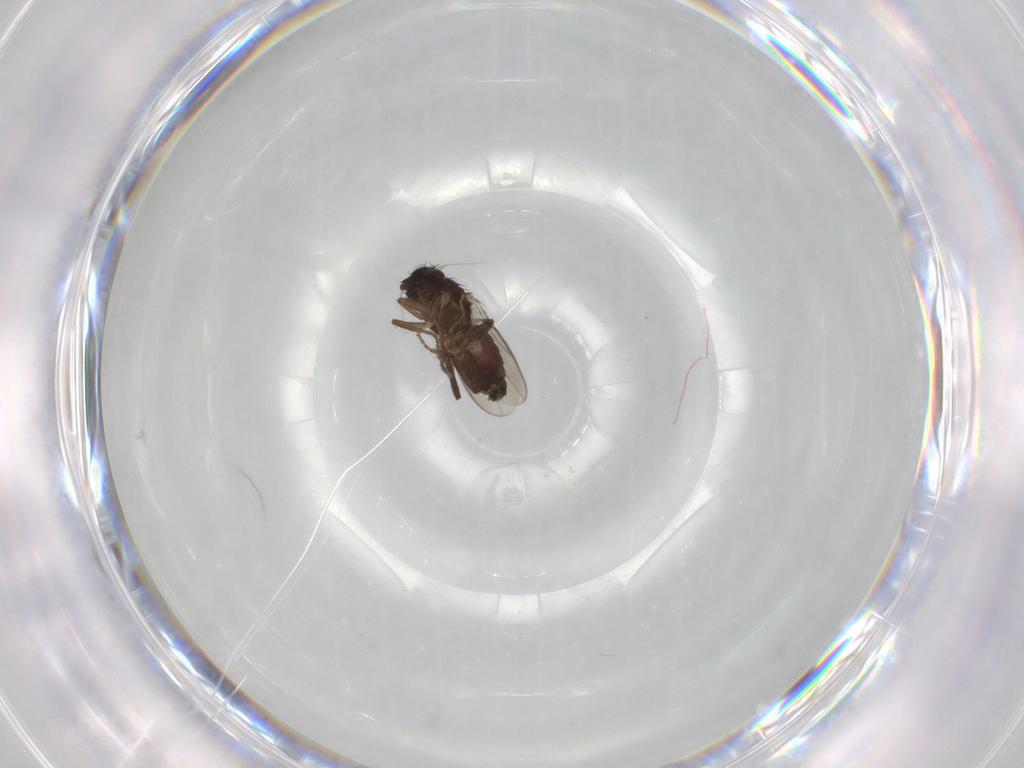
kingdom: Animalia
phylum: Arthropoda
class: Insecta
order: Diptera
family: Sphaeroceridae
